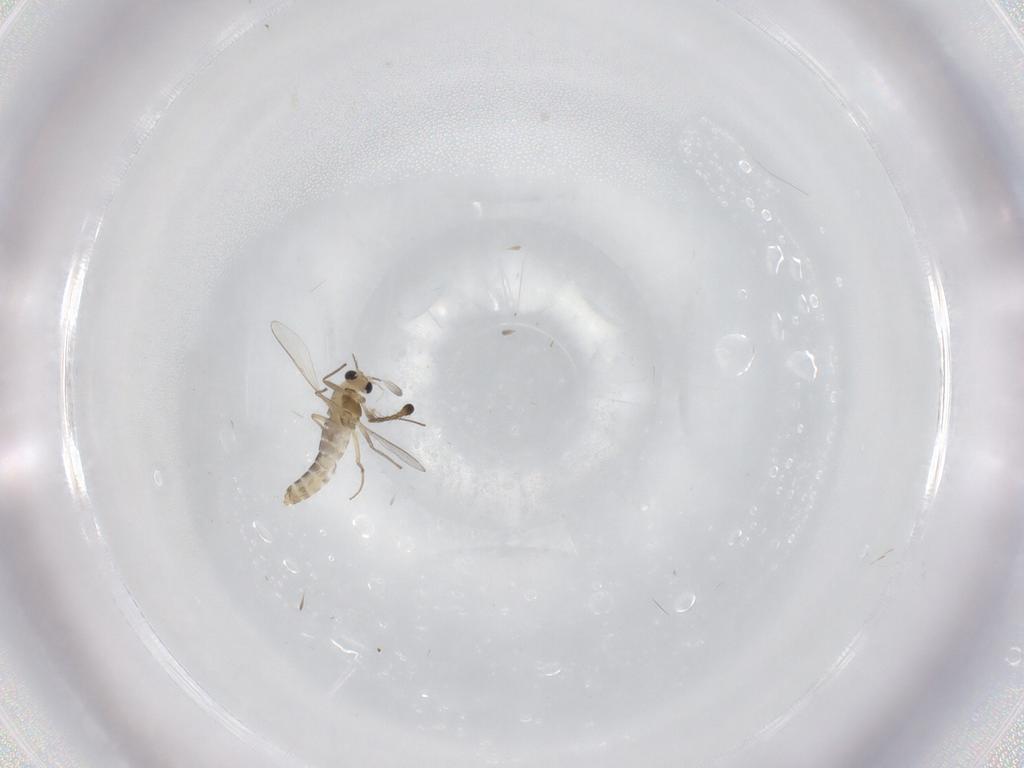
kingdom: Animalia
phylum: Arthropoda
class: Insecta
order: Diptera
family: Chironomidae
